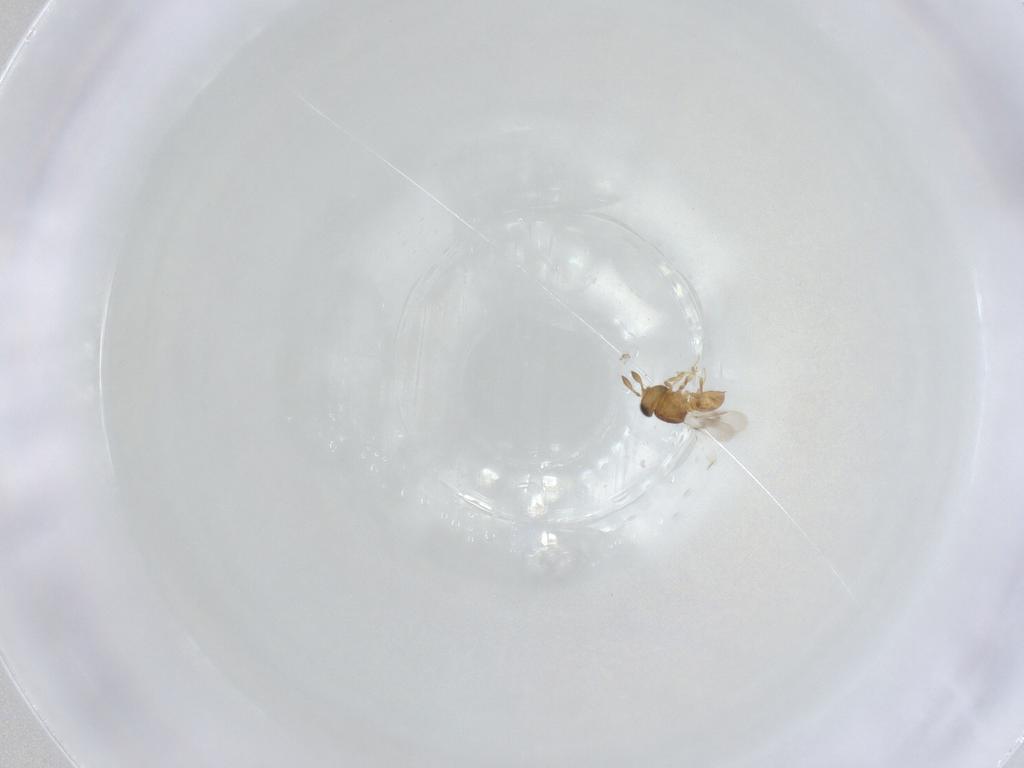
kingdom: Animalia
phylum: Arthropoda
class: Insecta
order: Hymenoptera
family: Scelionidae
